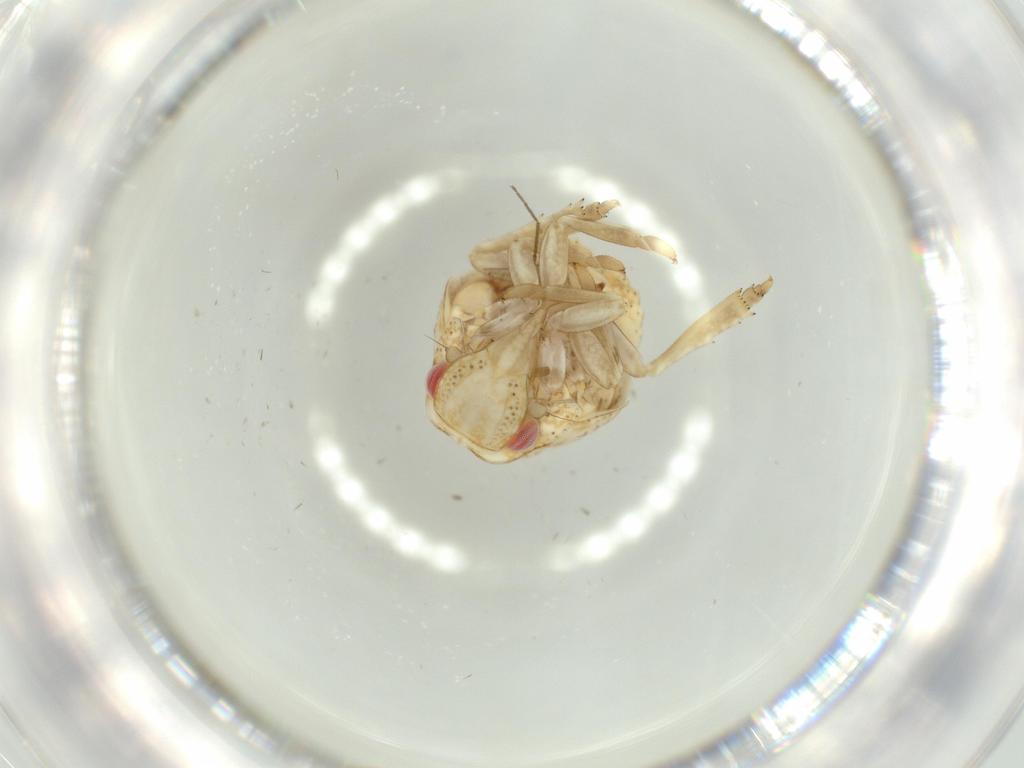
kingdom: Animalia
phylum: Arthropoda
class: Insecta
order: Hemiptera
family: Acanaloniidae
